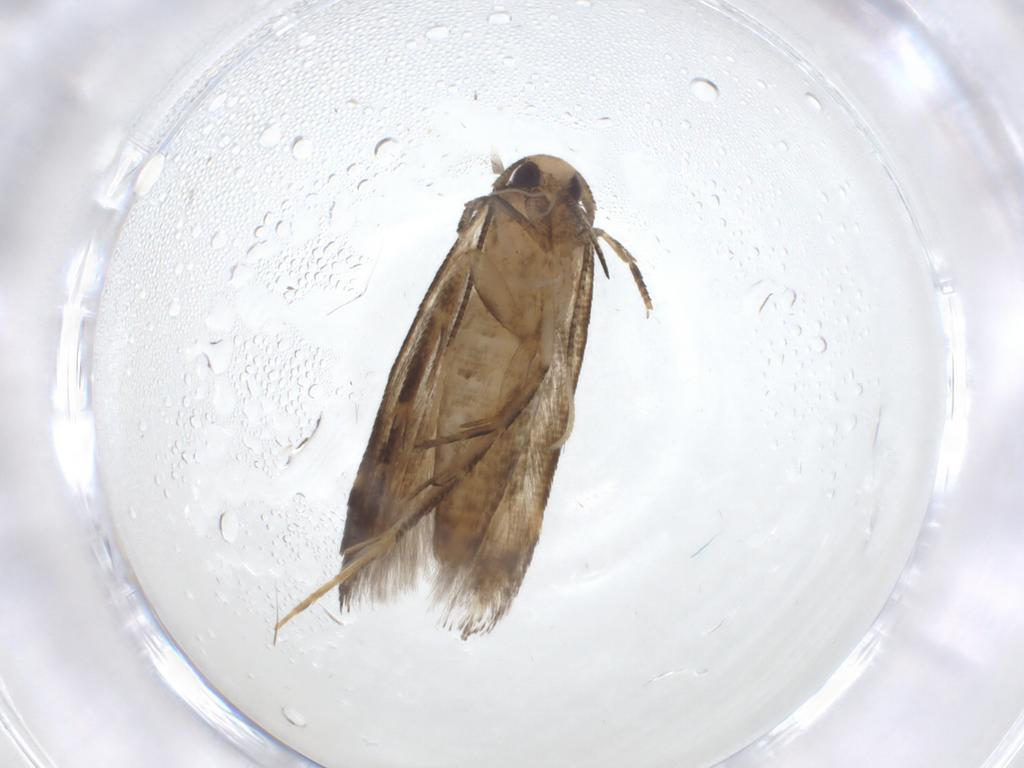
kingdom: Animalia
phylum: Arthropoda
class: Insecta
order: Lepidoptera
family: Gelechiidae
